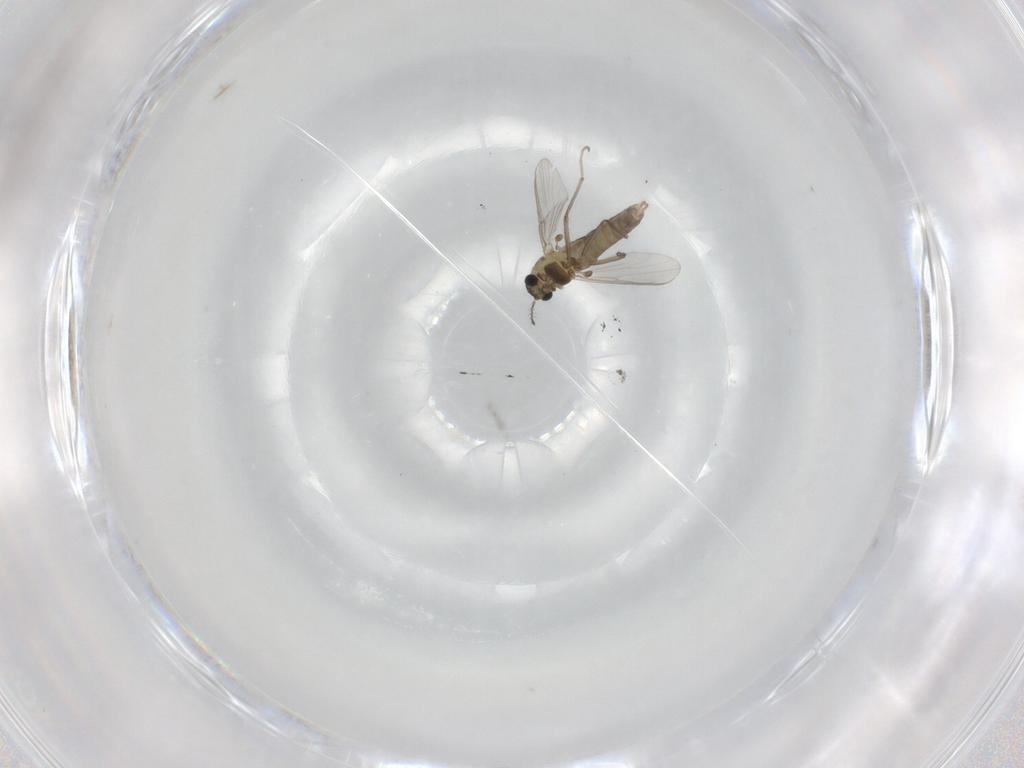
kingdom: Animalia
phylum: Arthropoda
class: Insecta
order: Diptera
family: Chironomidae
